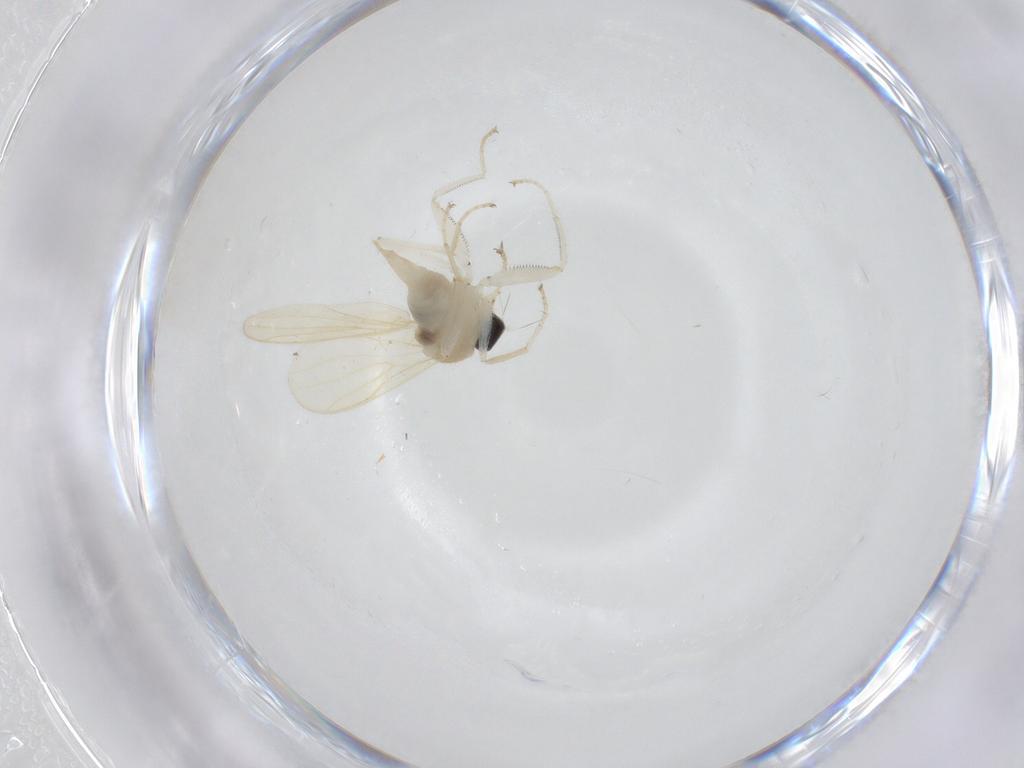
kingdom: Animalia
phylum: Arthropoda
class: Insecta
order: Diptera
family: Hybotidae
